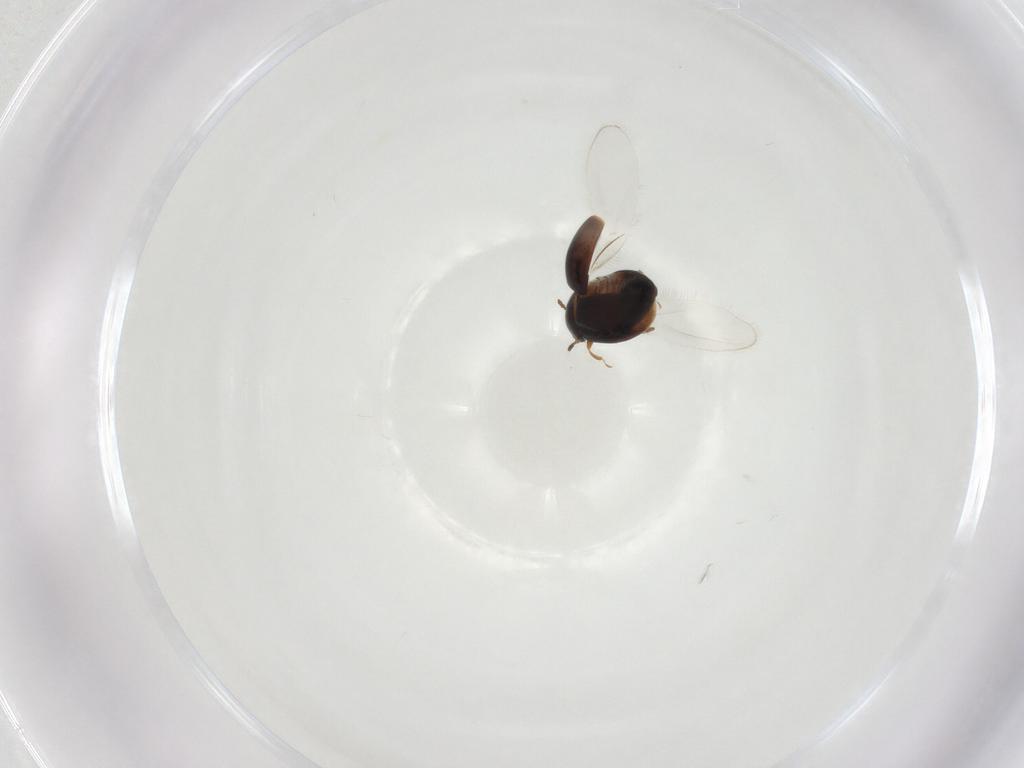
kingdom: Animalia
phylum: Arthropoda
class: Insecta
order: Coleoptera
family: Corylophidae
